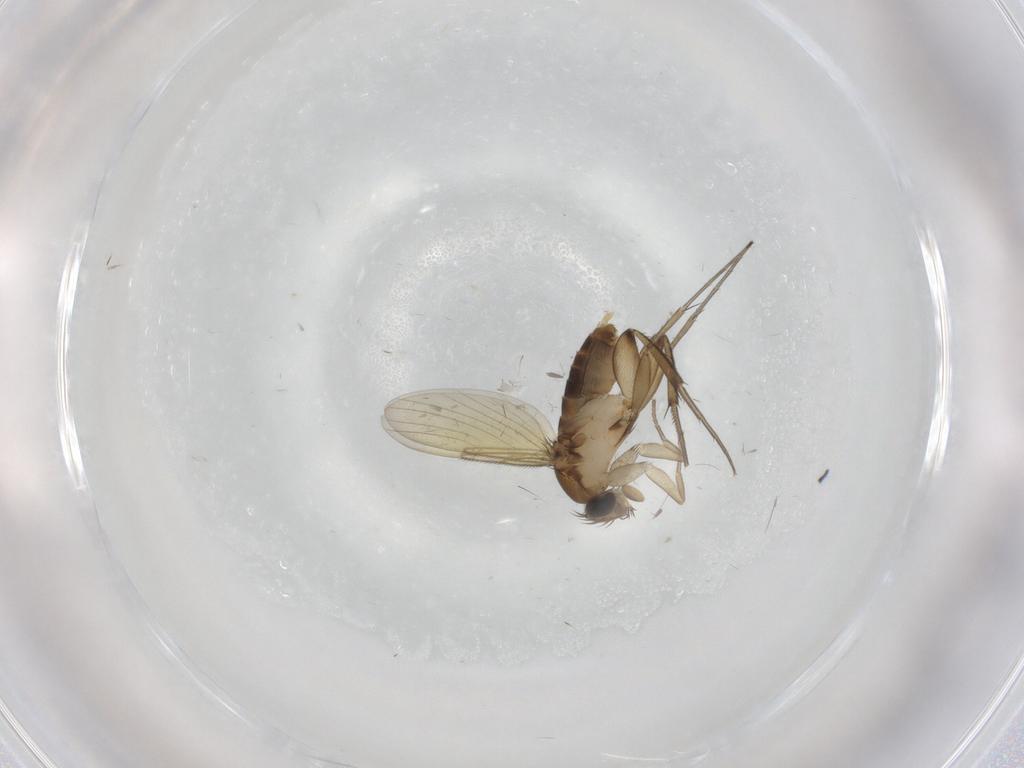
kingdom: Animalia
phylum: Arthropoda
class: Insecta
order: Diptera
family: Phoridae
